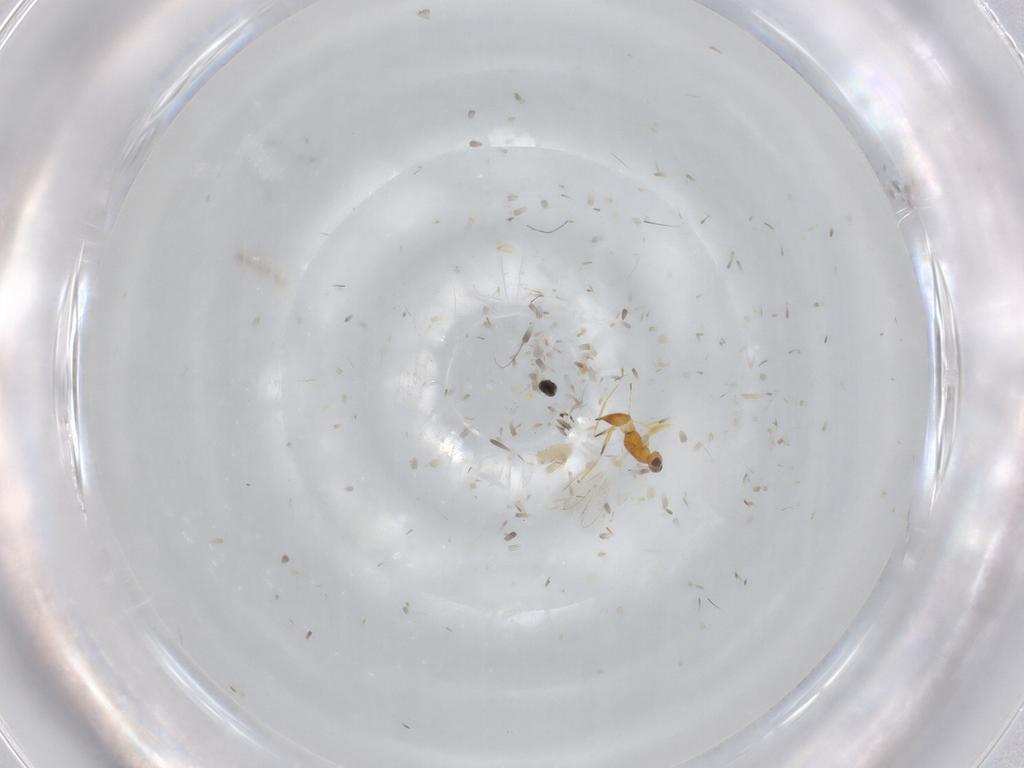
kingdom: Animalia
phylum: Arthropoda
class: Insecta
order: Hymenoptera
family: Mymaridae
